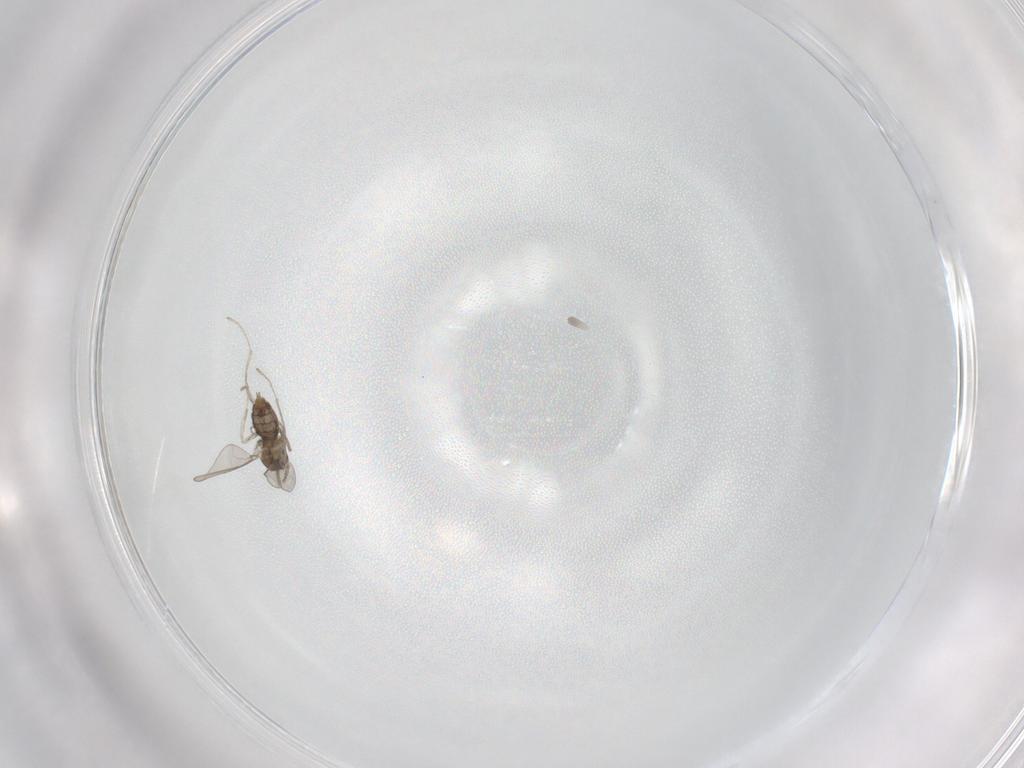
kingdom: Animalia
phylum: Arthropoda
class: Insecta
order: Diptera
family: Cecidomyiidae
